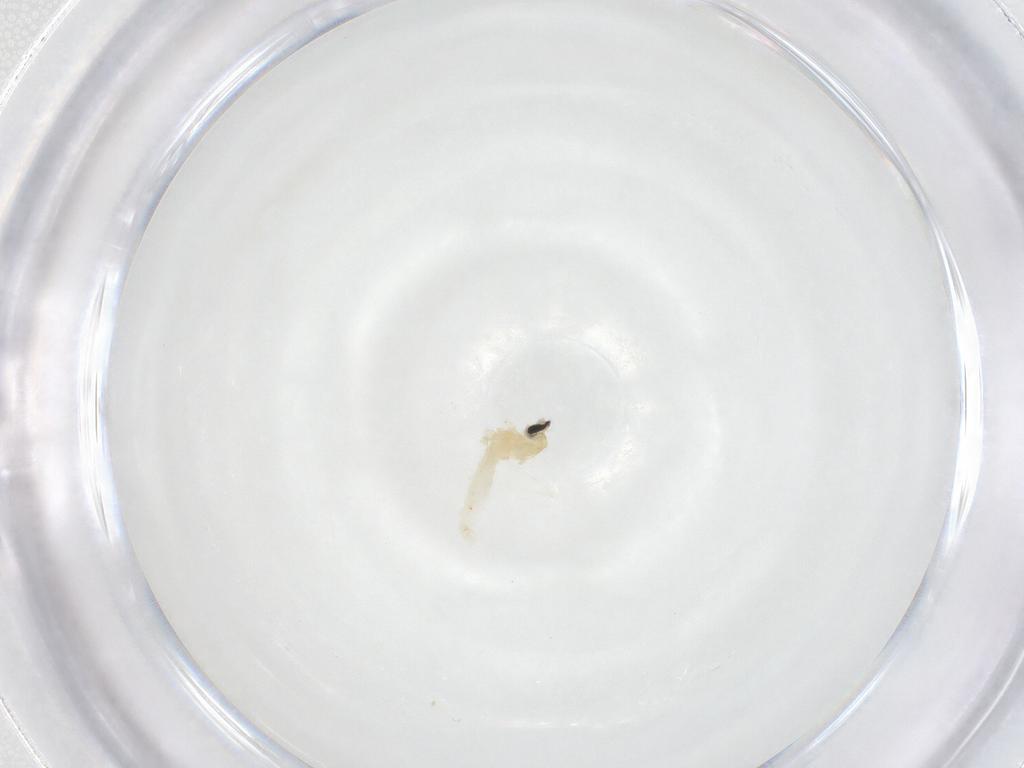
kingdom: Animalia
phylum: Arthropoda
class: Insecta
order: Diptera
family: Cecidomyiidae
